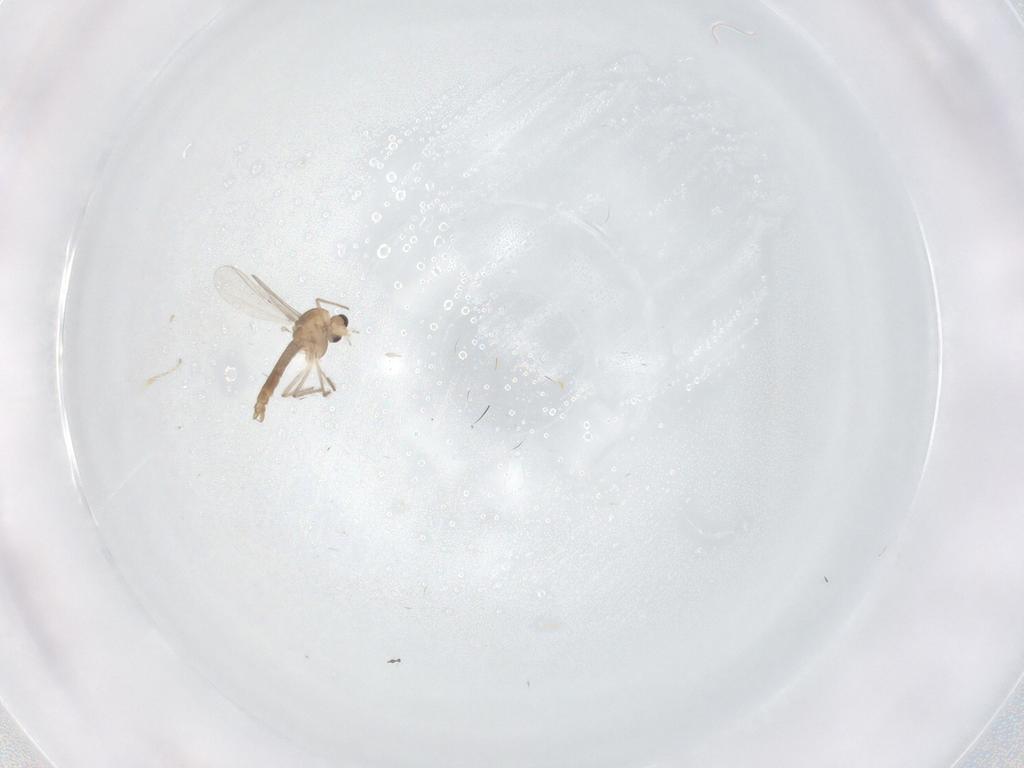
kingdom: Animalia
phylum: Arthropoda
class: Insecta
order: Diptera
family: Chironomidae
